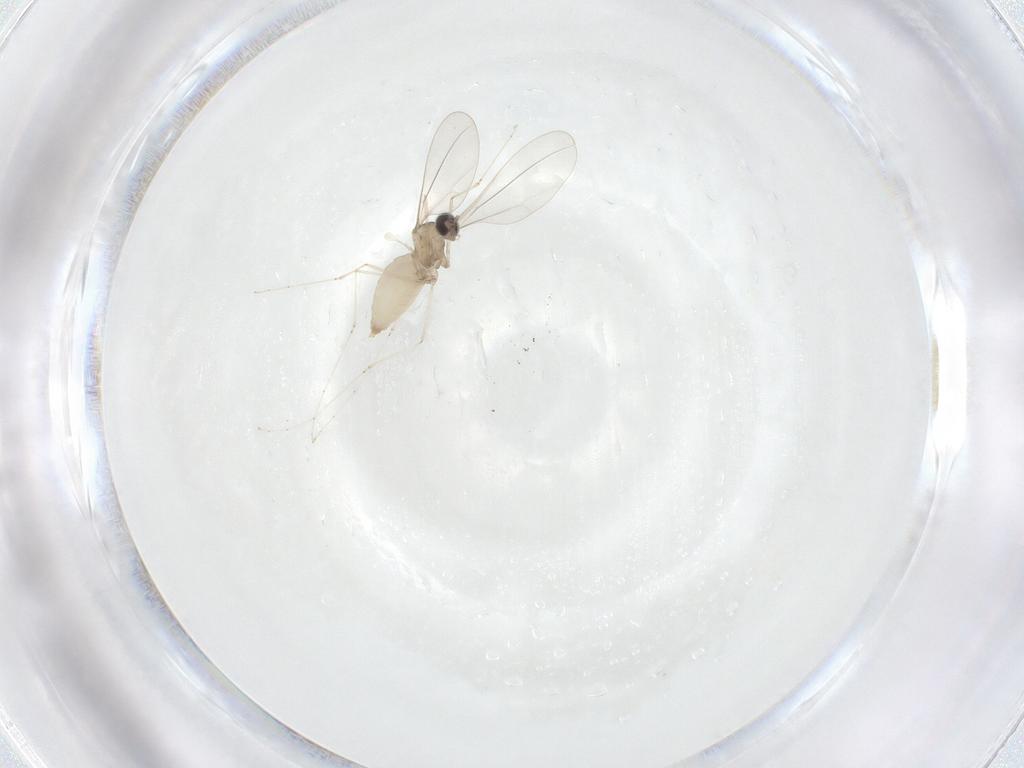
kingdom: Animalia
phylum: Arthropoda
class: Insecta
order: Diptera
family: Cecidomyiidae
